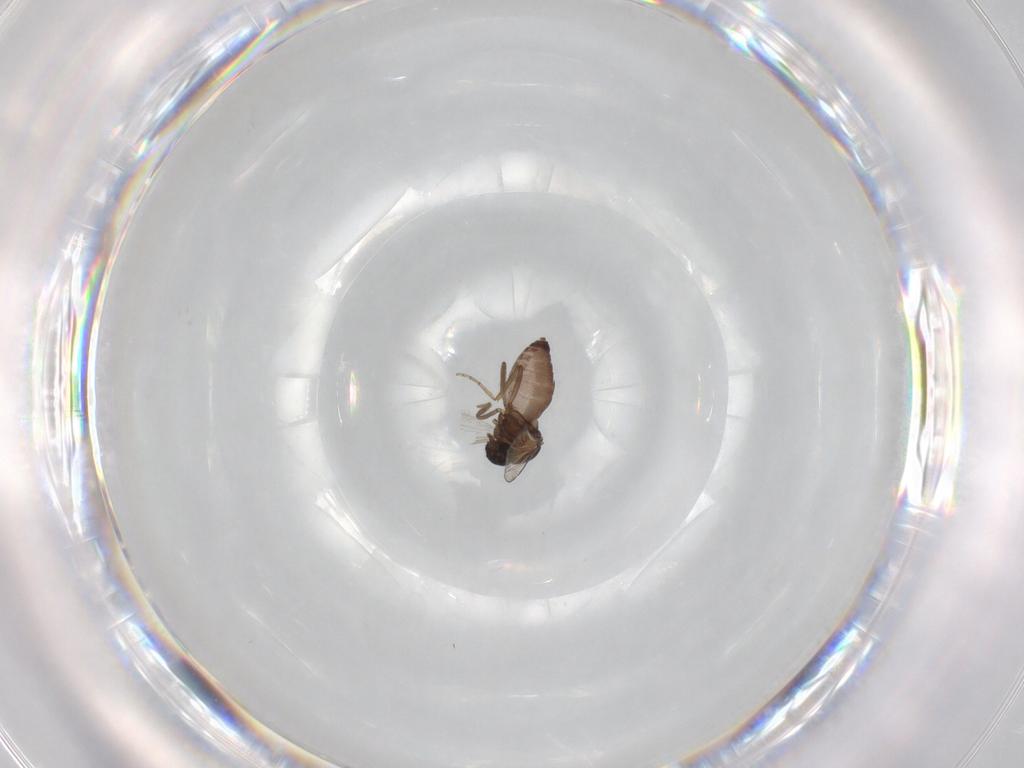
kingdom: Animalia
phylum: Arthropoda
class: Insecta
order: Diptera
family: Ceratopogonidae
